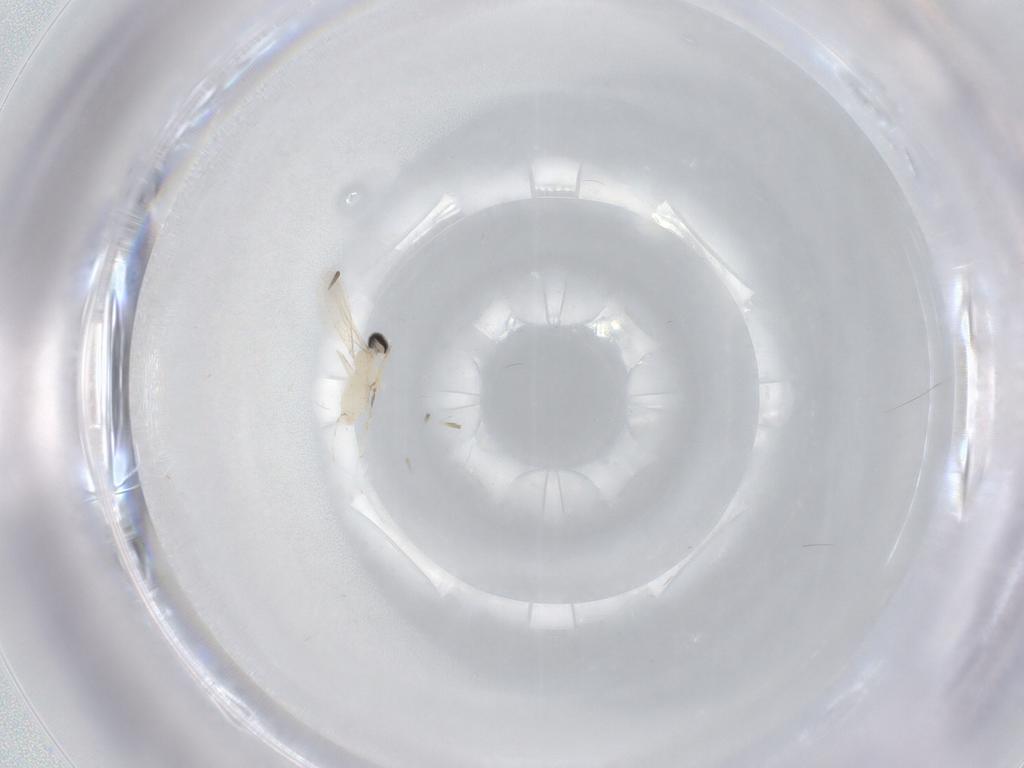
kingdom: Animalia
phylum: Arthropoda
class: Insecta
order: Diptera
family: Cecidomyiidae
